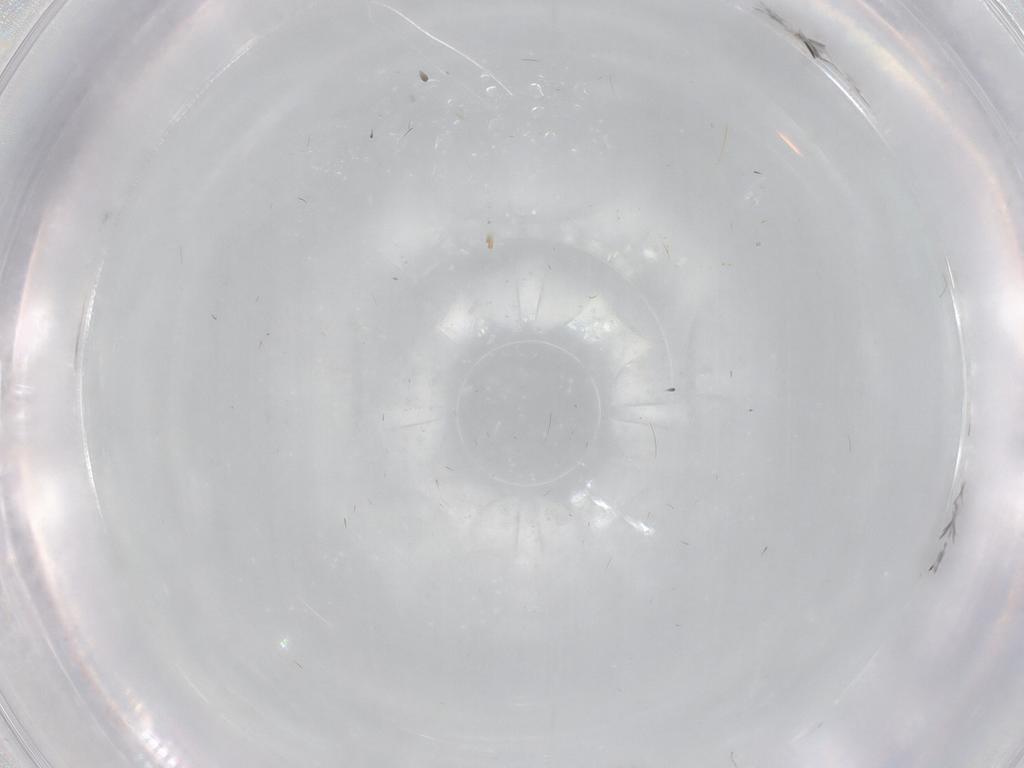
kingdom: Animalia
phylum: Arthropoda
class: Insecta
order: Diptera
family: Cecidomyiidae
